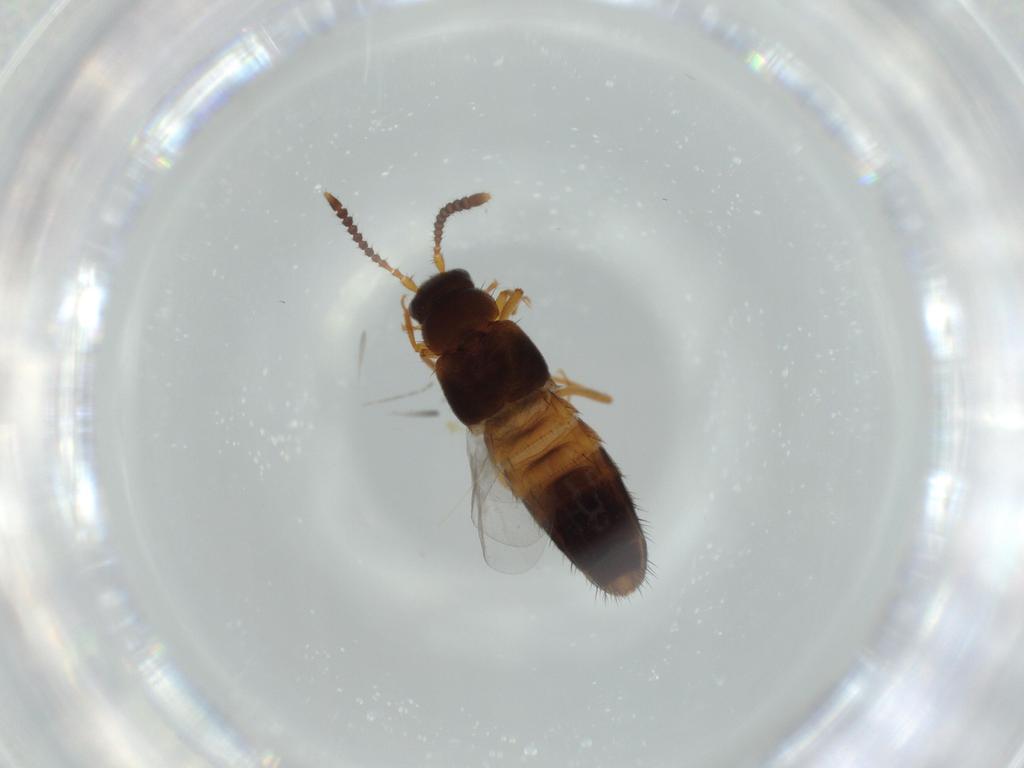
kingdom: Animalia
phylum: Arthropoda
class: Insecta
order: Coleoptera
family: Staphylinidae
